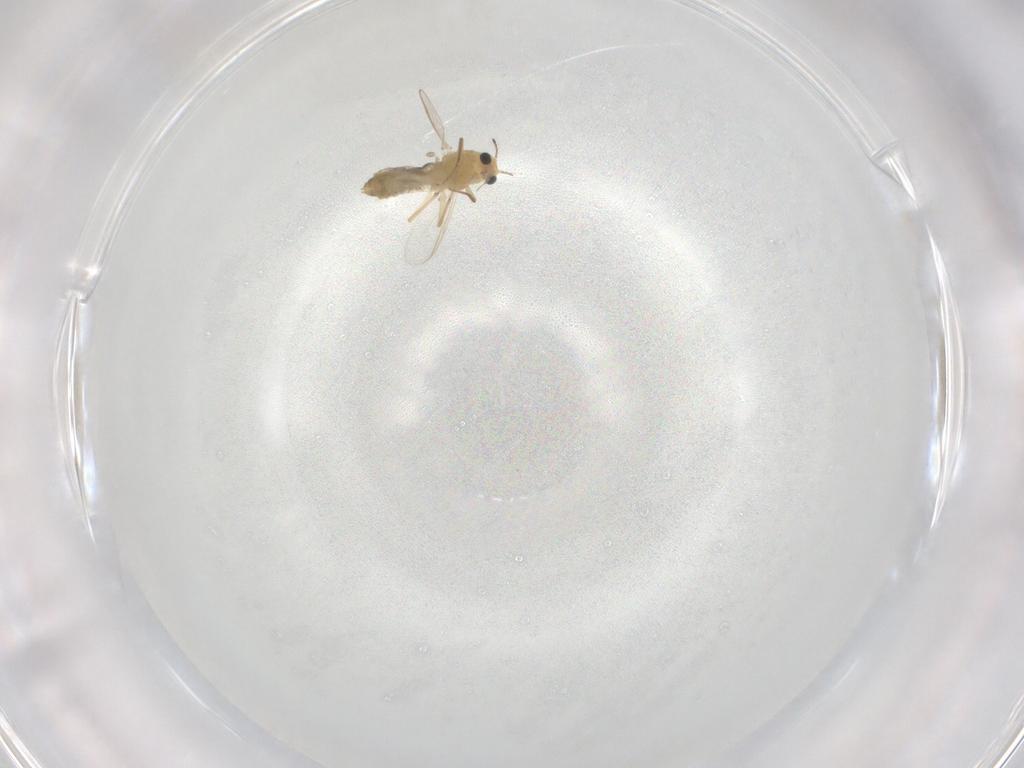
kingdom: Animalia
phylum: Arthropoda
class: Insecta
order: Diptera
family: Chironomidae
